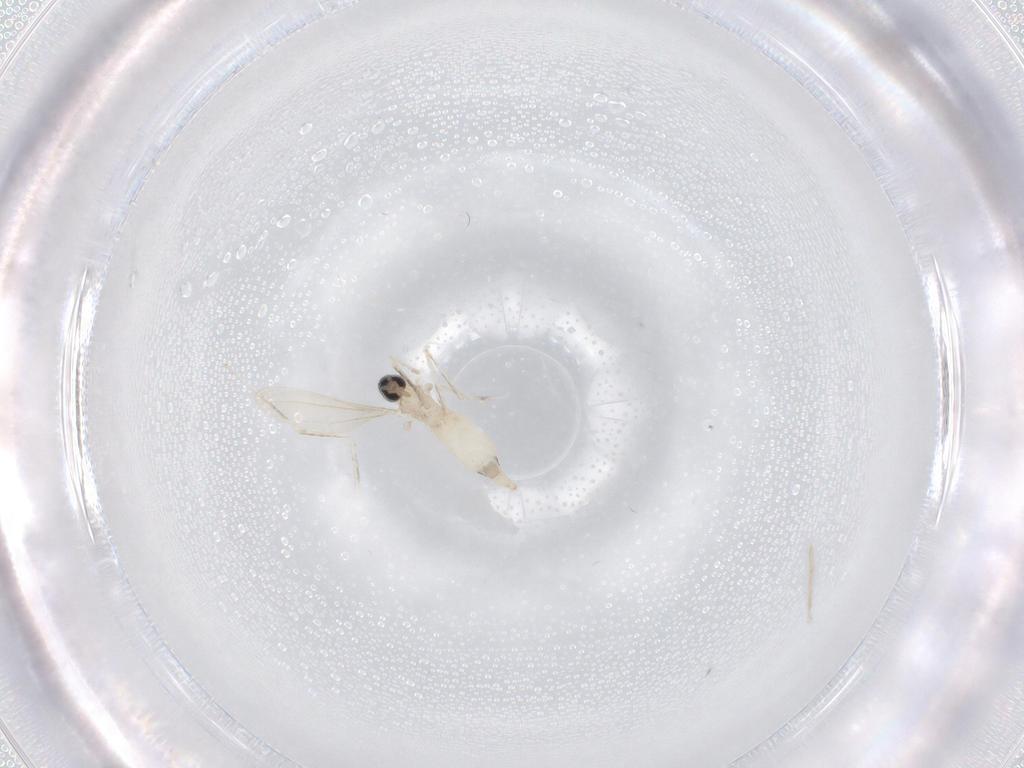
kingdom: Animalia
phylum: Arthropoda
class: Insecta
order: Diptera
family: Cecidomyiidae
